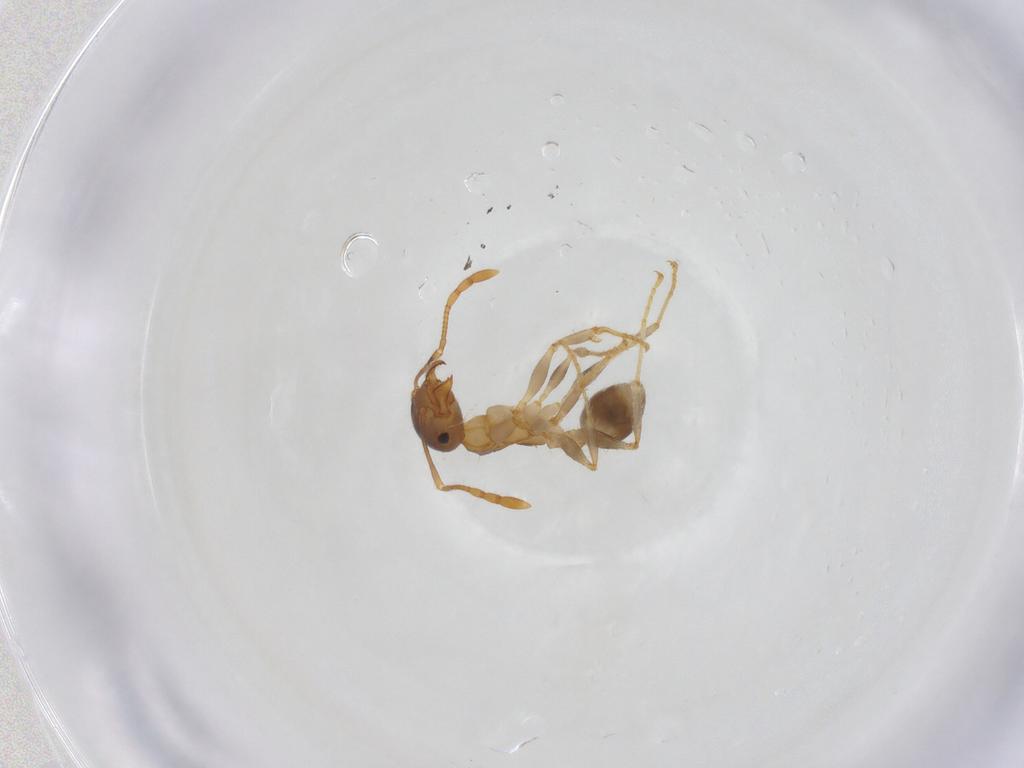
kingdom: Animalia
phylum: Arthropoda
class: Insecta
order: Hymenoptera
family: Formicidae
